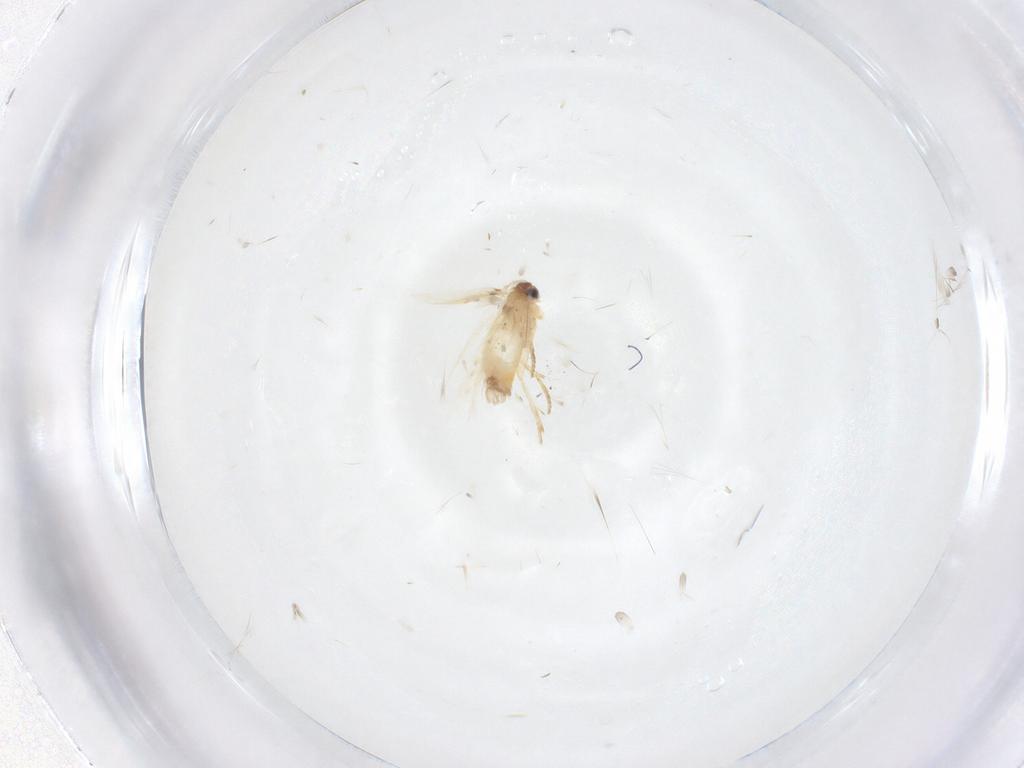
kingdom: Animalia
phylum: Arthropoda
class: Insecta
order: Lepidoptera
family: Nepticulidae
